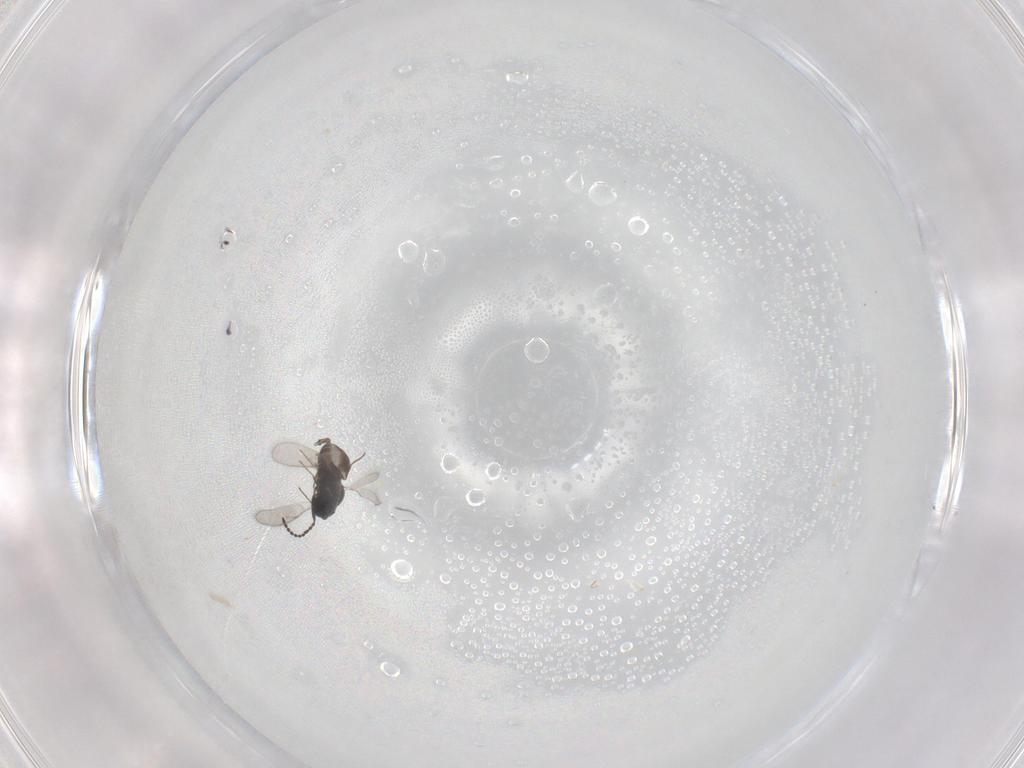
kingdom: Animalia
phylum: Arthropoda
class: Insecta
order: Hymenoptera
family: Scelionidae
